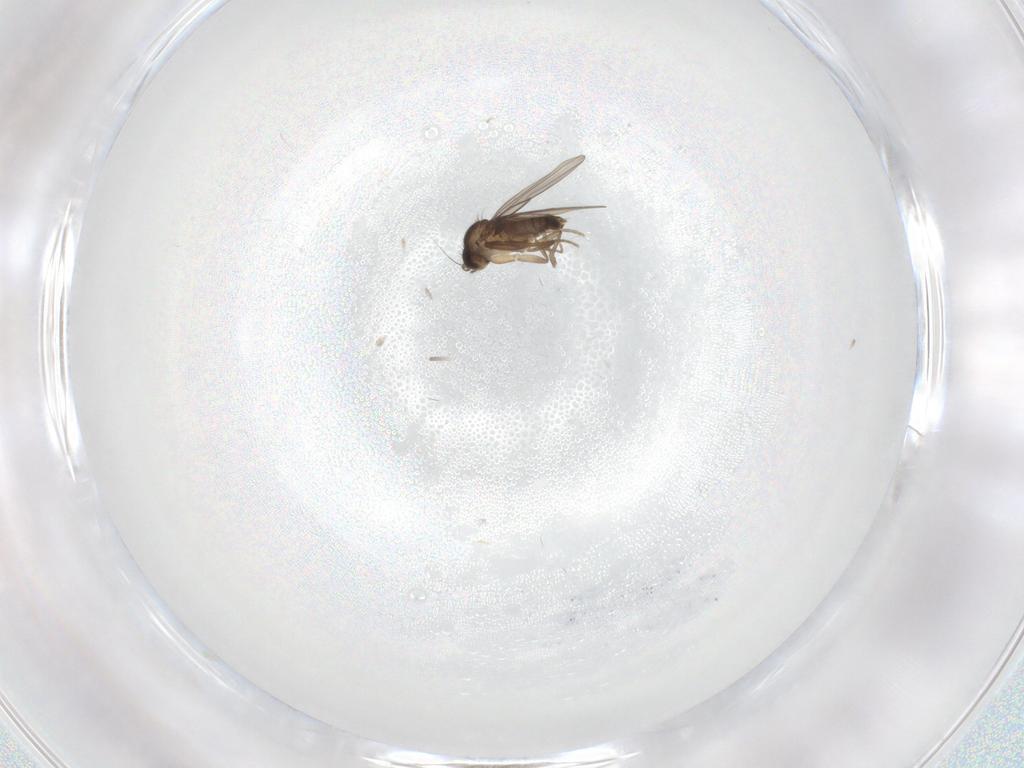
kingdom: Animalia
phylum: Arthropoda
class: Insecta
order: Diptera
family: Phoridae
